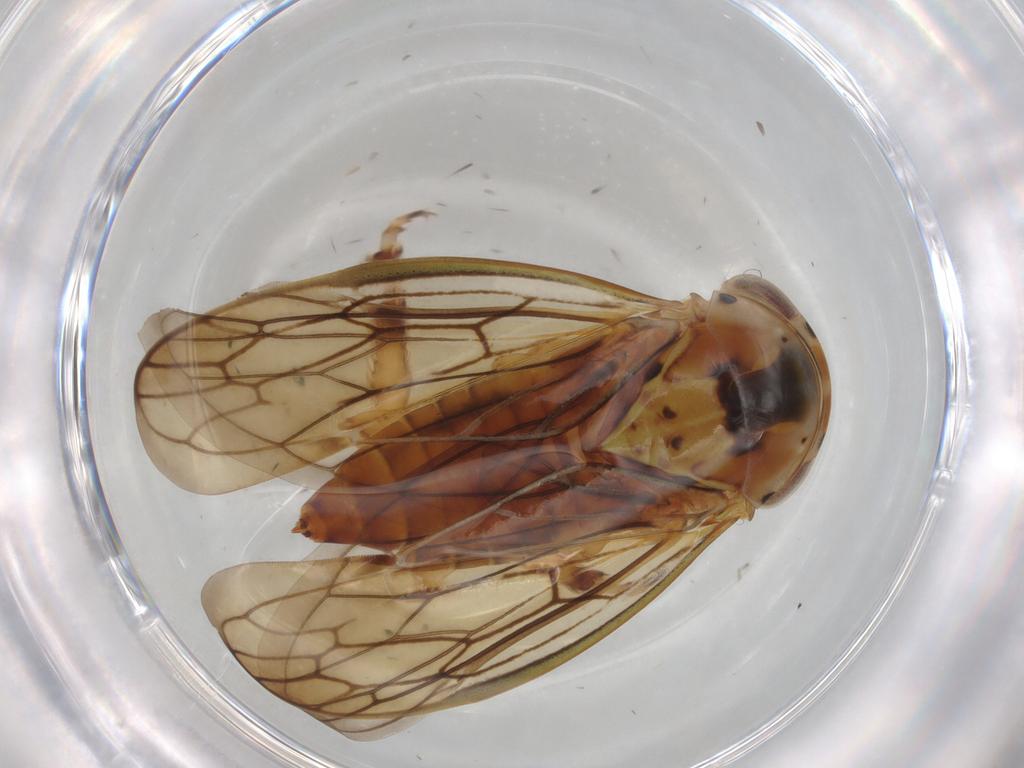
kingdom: Animalia
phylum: Arthropoda
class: Insecta
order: Hemiptera
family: Cicadellidae
